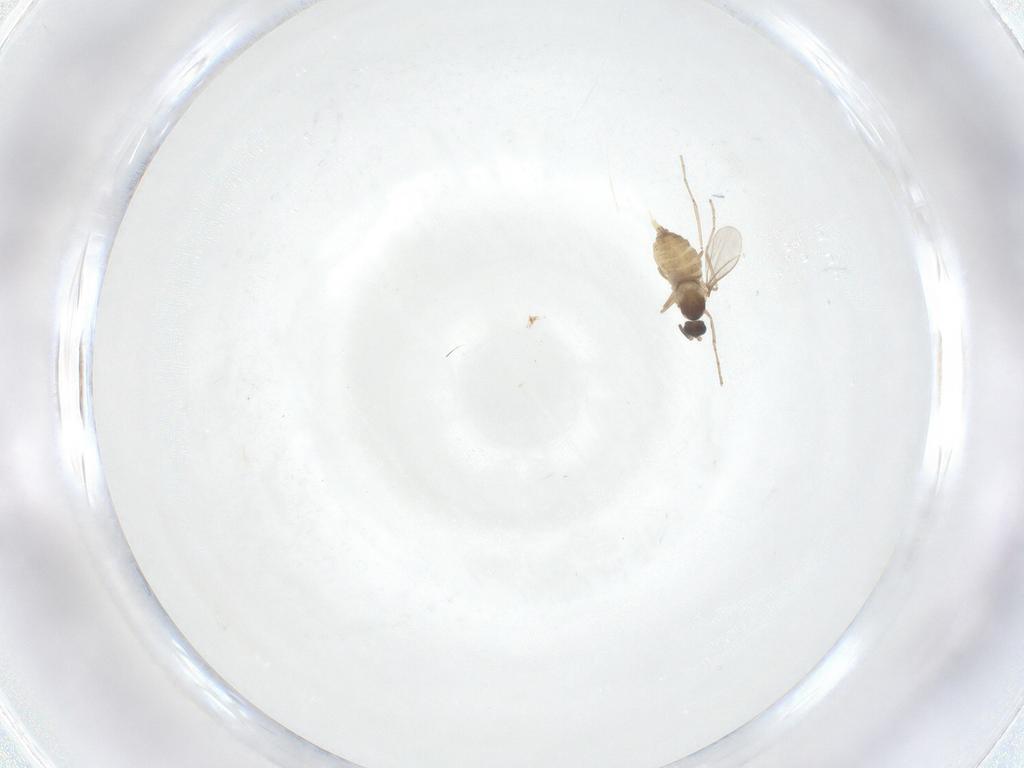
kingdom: Animalia
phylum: Arthropoda
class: Insecta
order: Diptera
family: Cecidomyiidae
